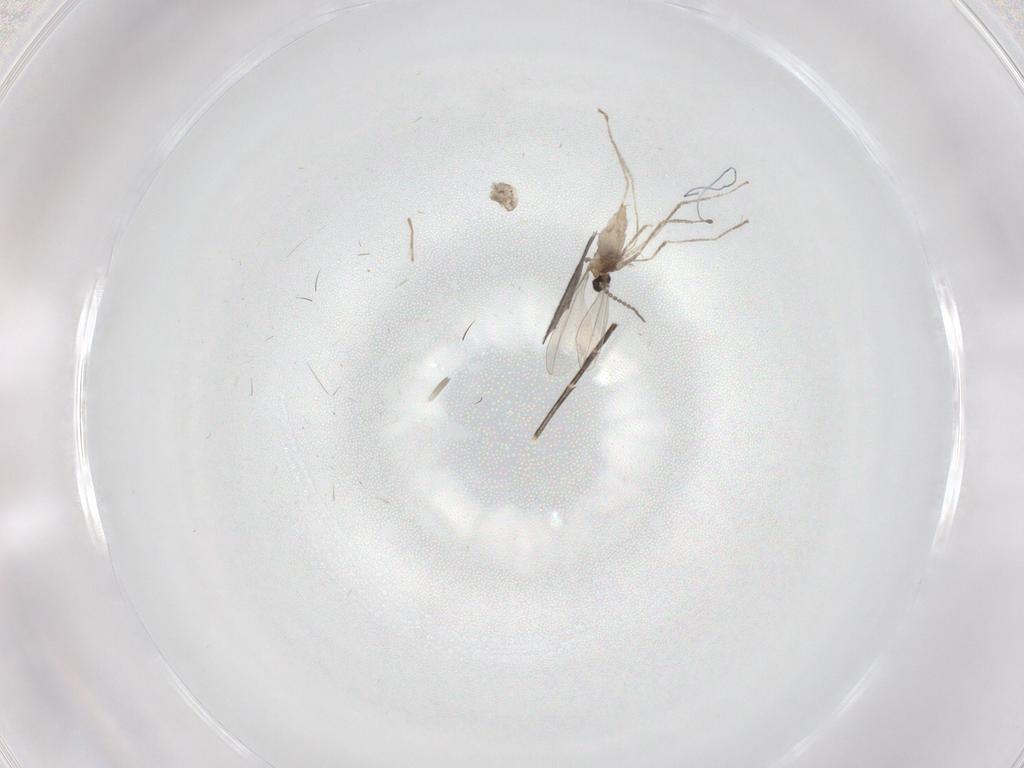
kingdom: Animalia
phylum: Arthropoda
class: Insecta
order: Diptera
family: Cecidomyiidae
